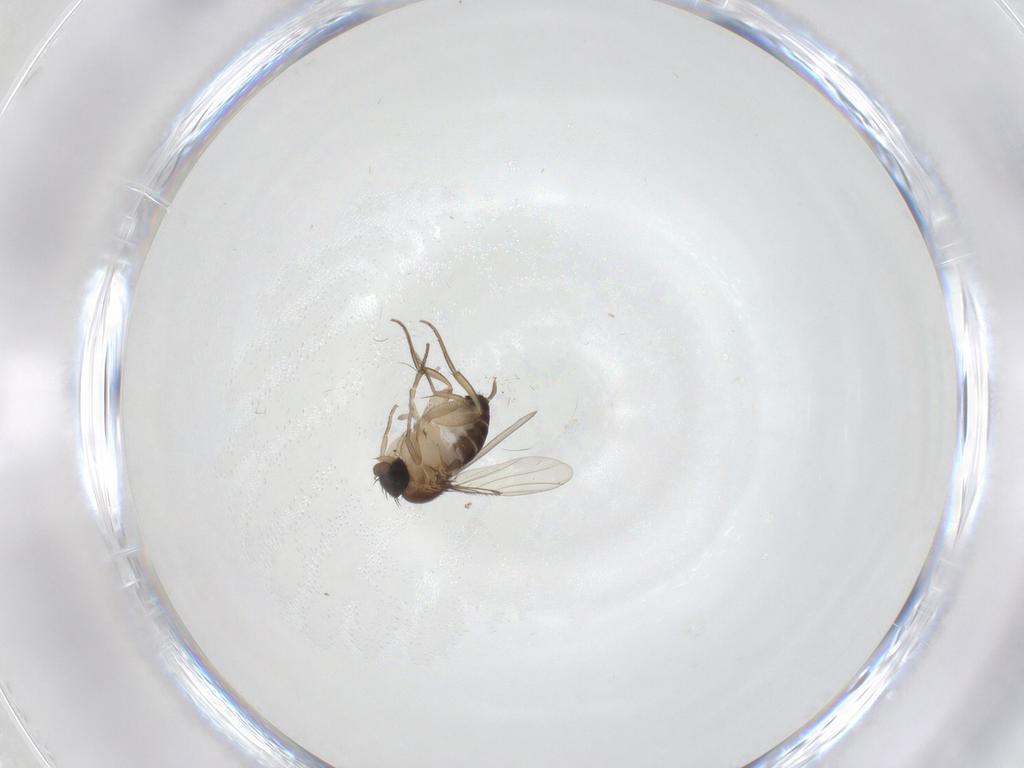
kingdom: Animalia
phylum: Arthropoda
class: Insecta
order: Diptera
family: Phoridae
